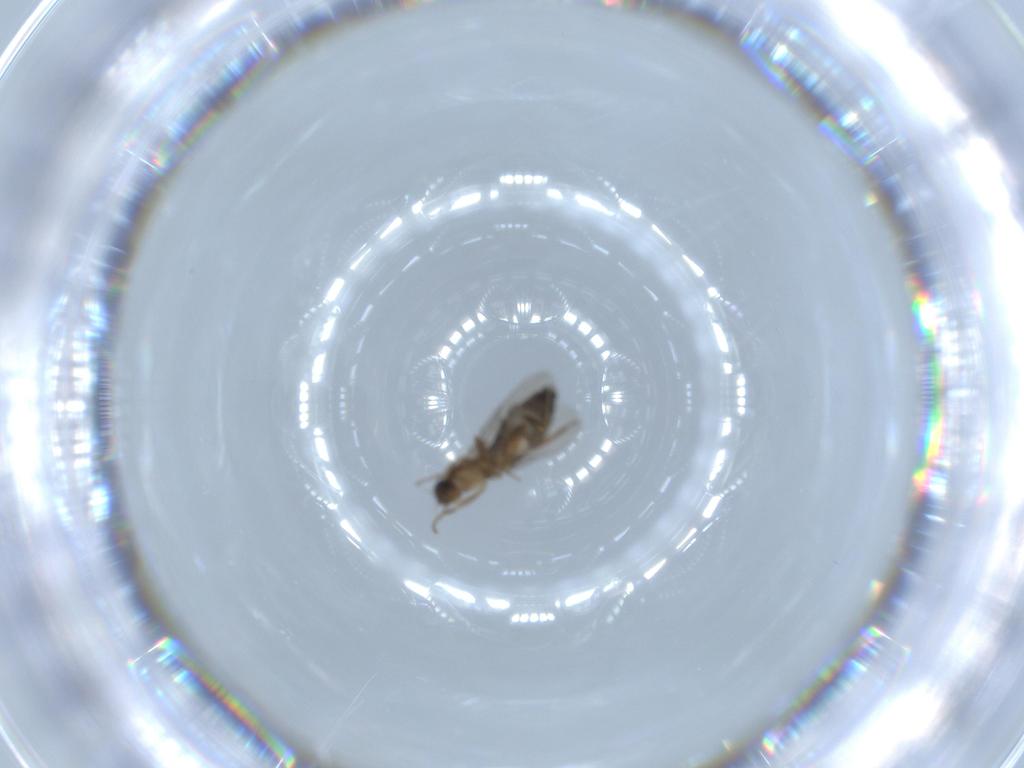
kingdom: Animalia
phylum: Arthropoda
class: Insecta
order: Diptera
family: Phoridae
